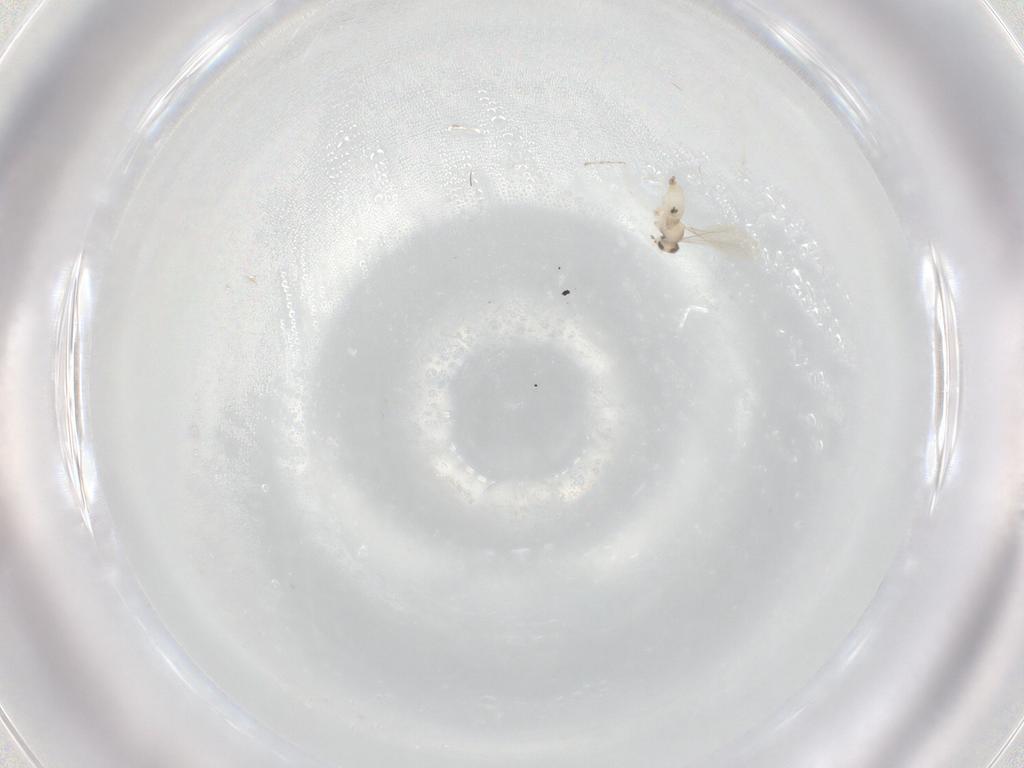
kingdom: Animalia
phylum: Arthropoda
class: Insecta
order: Diptera
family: Cecidomyiidae
